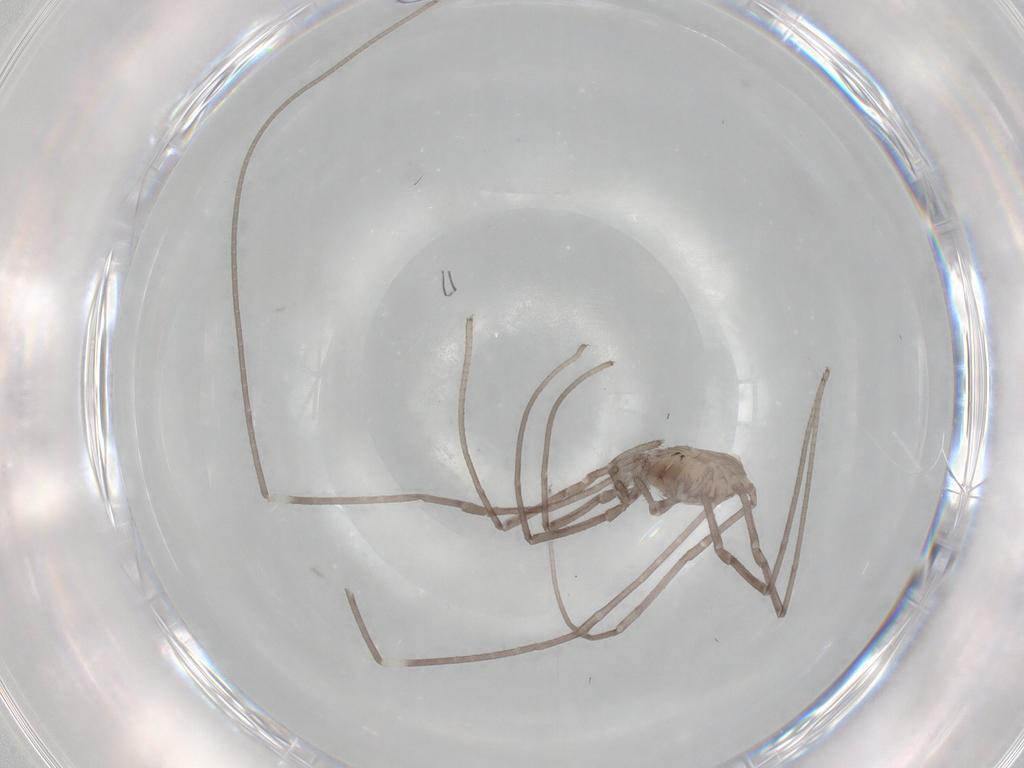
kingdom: Animalia
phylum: Arthropoda
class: Arachnida
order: Opiliones
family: Sclerosomatidae
